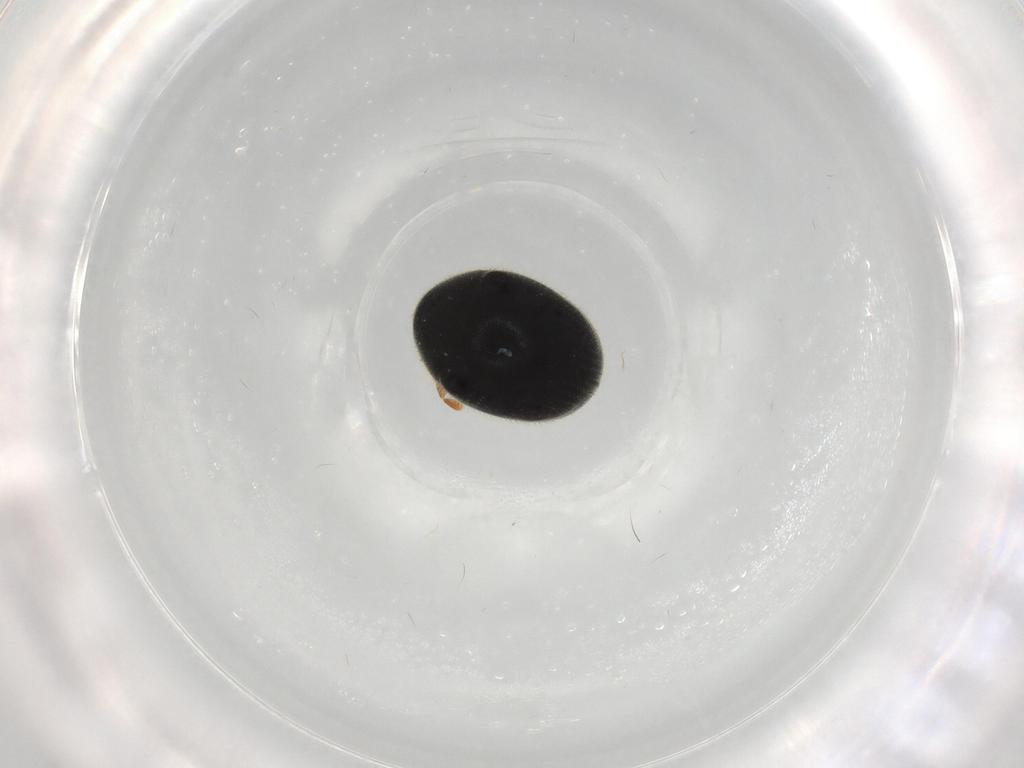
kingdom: Animalia
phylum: Arthropoda
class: Insecta
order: Coleoptera
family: Ptinidae
